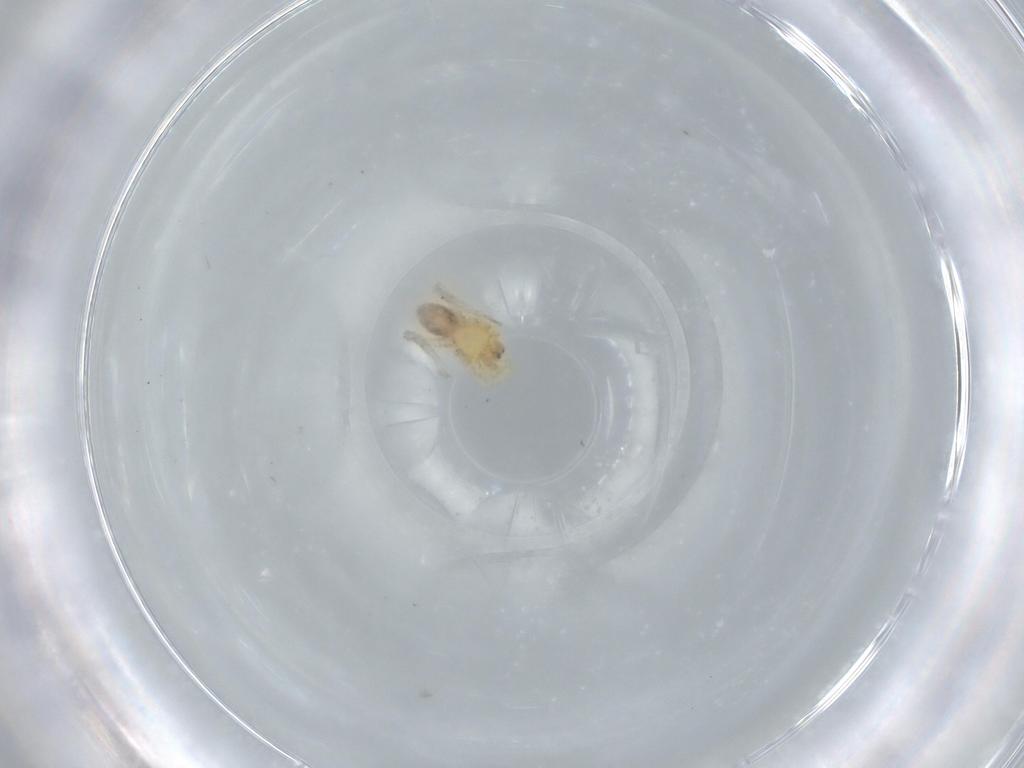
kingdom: Animalia
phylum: Arthropoda
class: Arachnida
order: Araneae
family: Oonopidae
